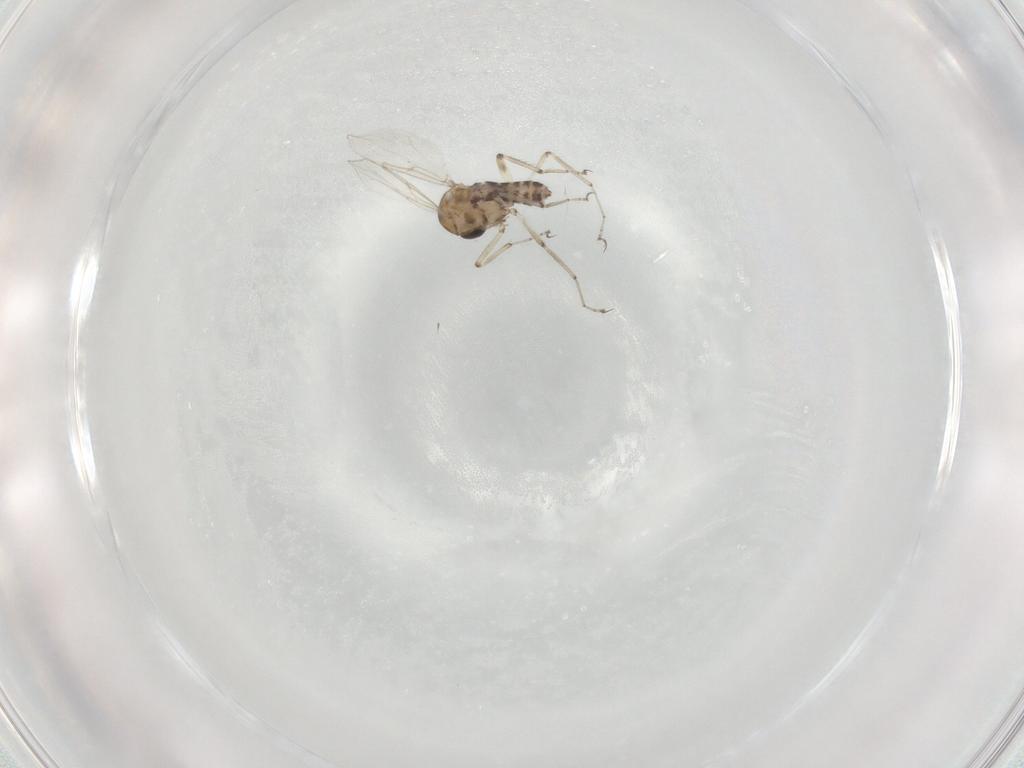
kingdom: Animalia
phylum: Arthropoda
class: Insecta
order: Diptera
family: Ceratopogonidae
